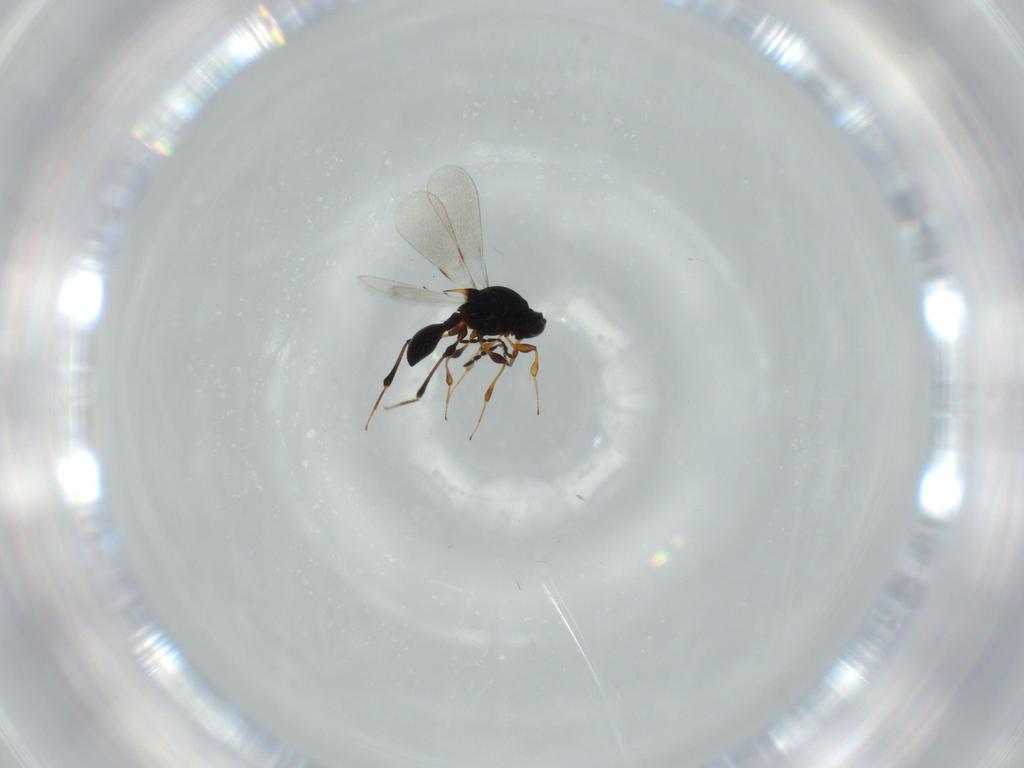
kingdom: Animalia
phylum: Arthropoda
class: Insecta
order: Hymenoptera
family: Platygastridae
